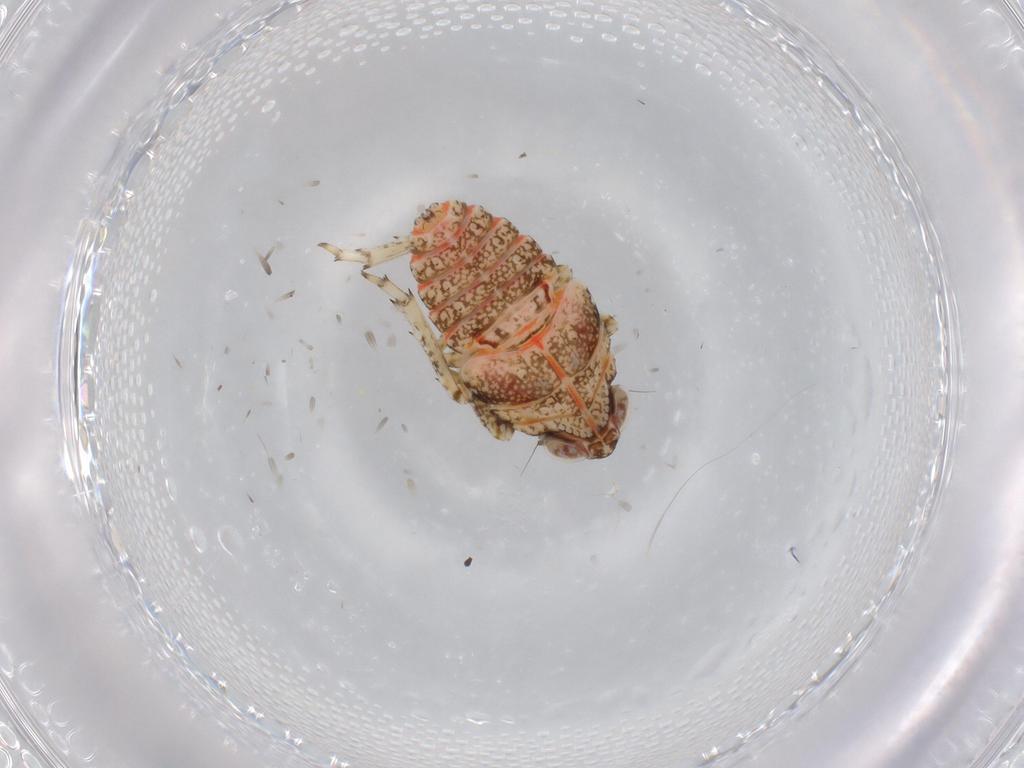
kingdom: Animalia
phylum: Arthropoda
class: Insecta
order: Hemiptera
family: Issidae
